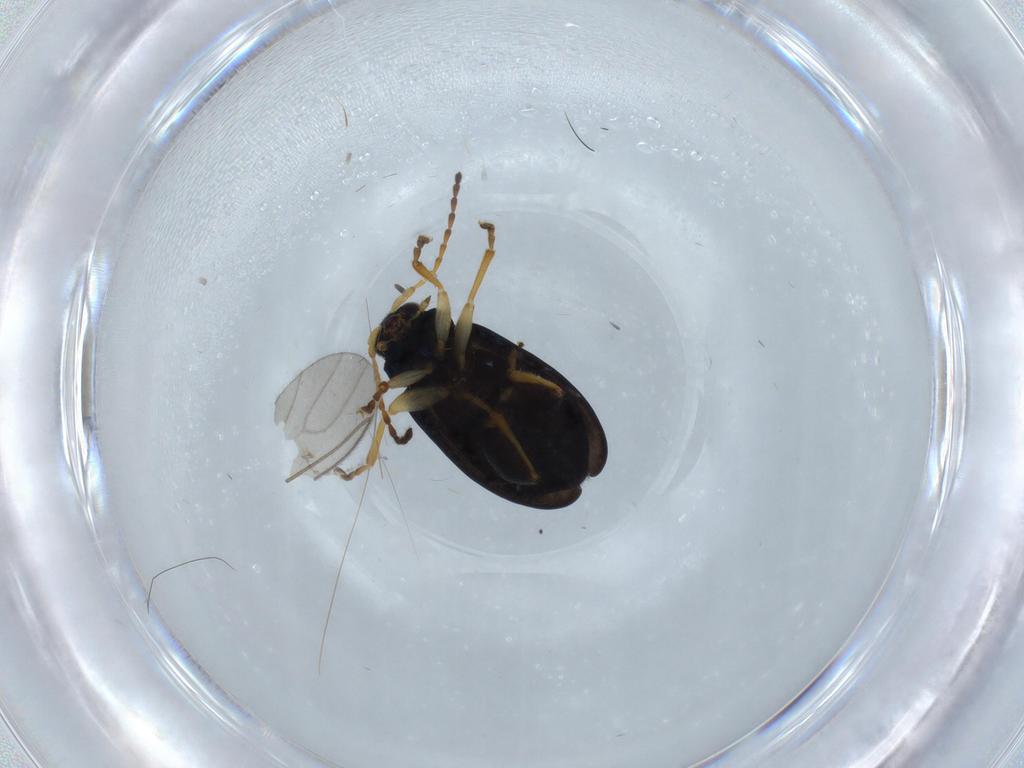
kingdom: Animalia
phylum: Arthropoda
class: Insecta
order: Coleoptera
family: Chrysomelidae
